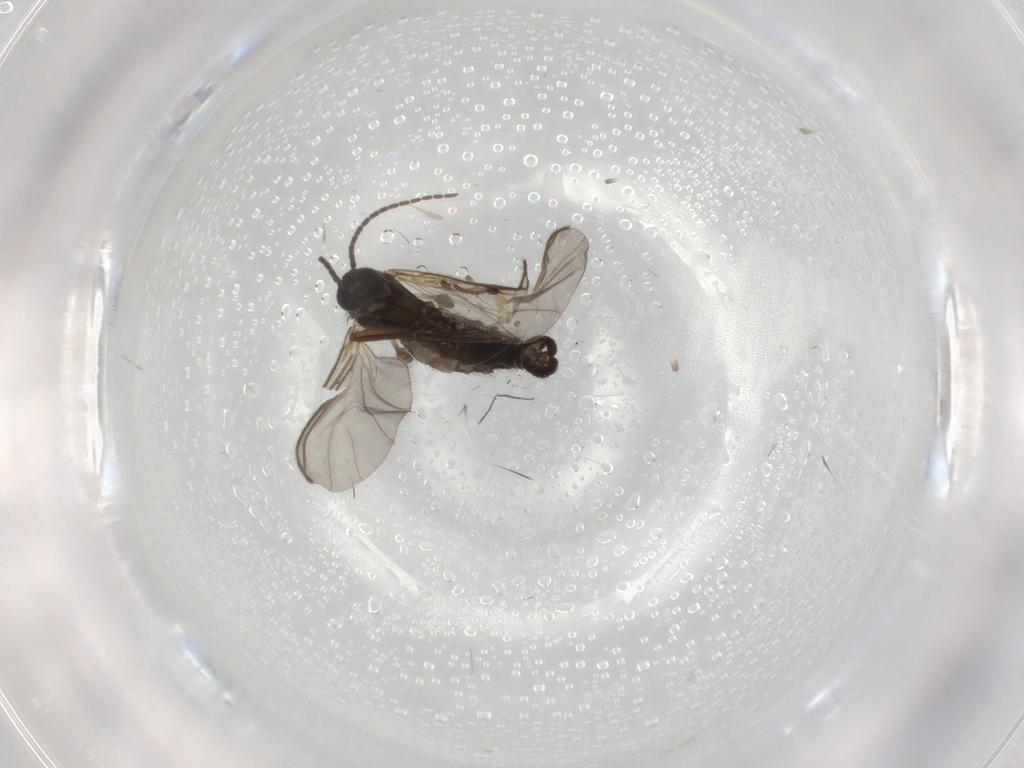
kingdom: Animalia
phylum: Arthropoda
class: Insecta
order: Diptera
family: Sciaridae
